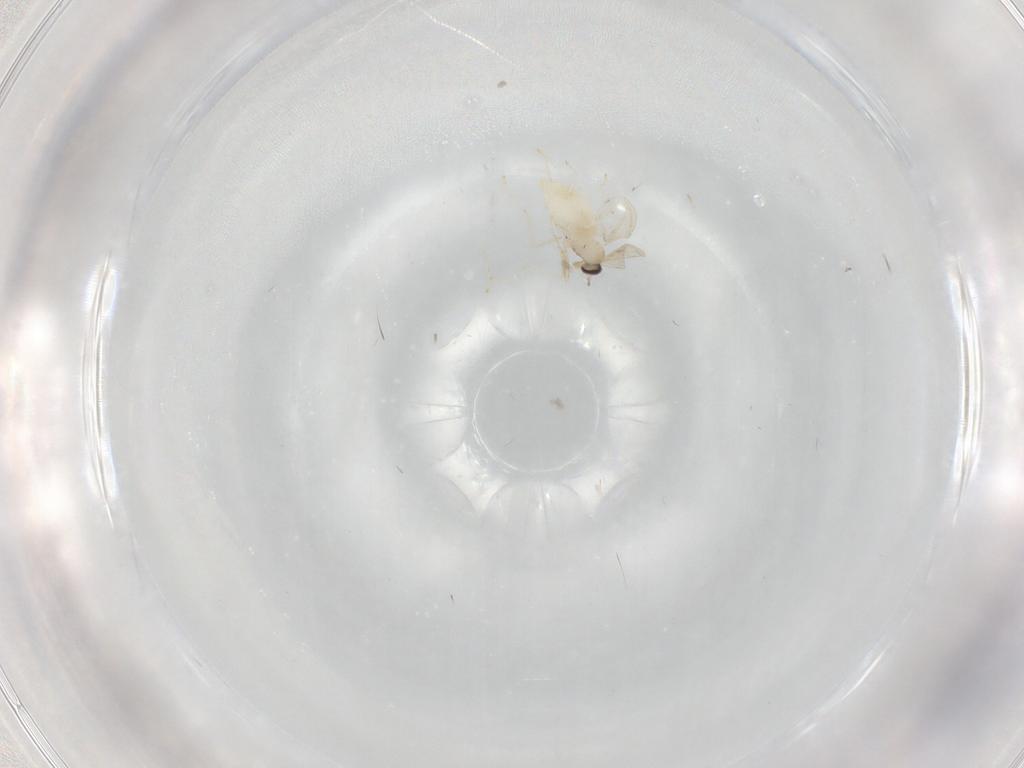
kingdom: Animalia
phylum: Arthropoda
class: Insecta
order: Diptera
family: Cecidomyiidae
